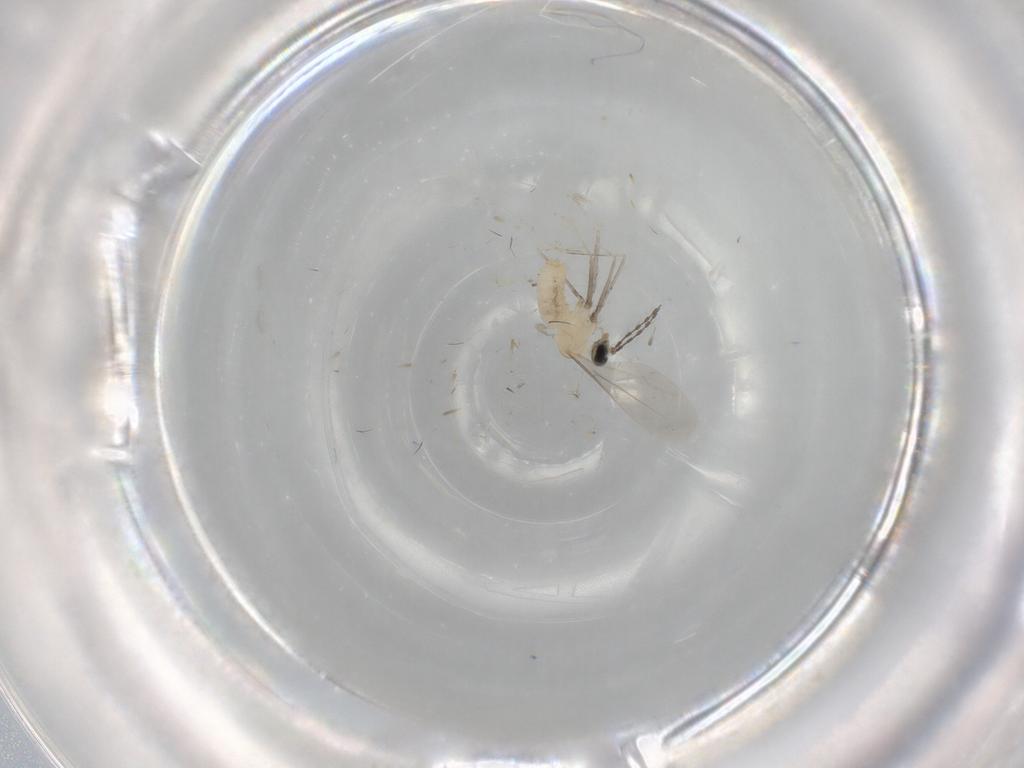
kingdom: Animalia
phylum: Arthropoda
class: Insecta
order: Diptera
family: Cecidomyiidae
